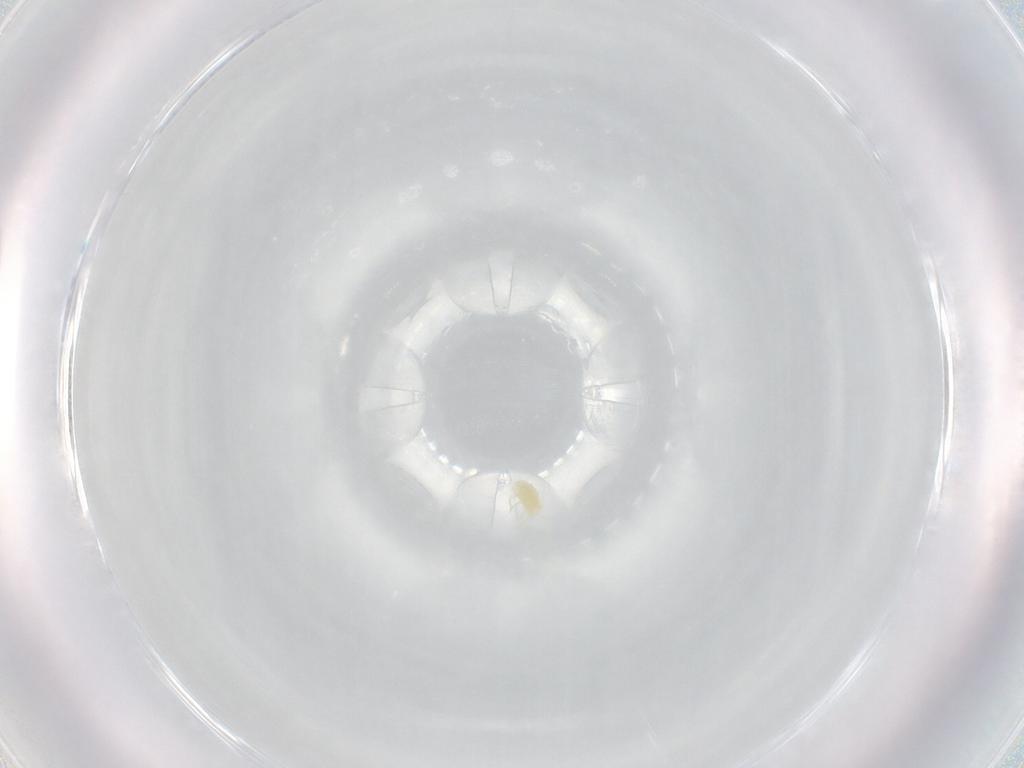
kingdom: Animalia
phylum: Arthropoda
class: Arachnida
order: Trombidiformes
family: Tetranychidae
